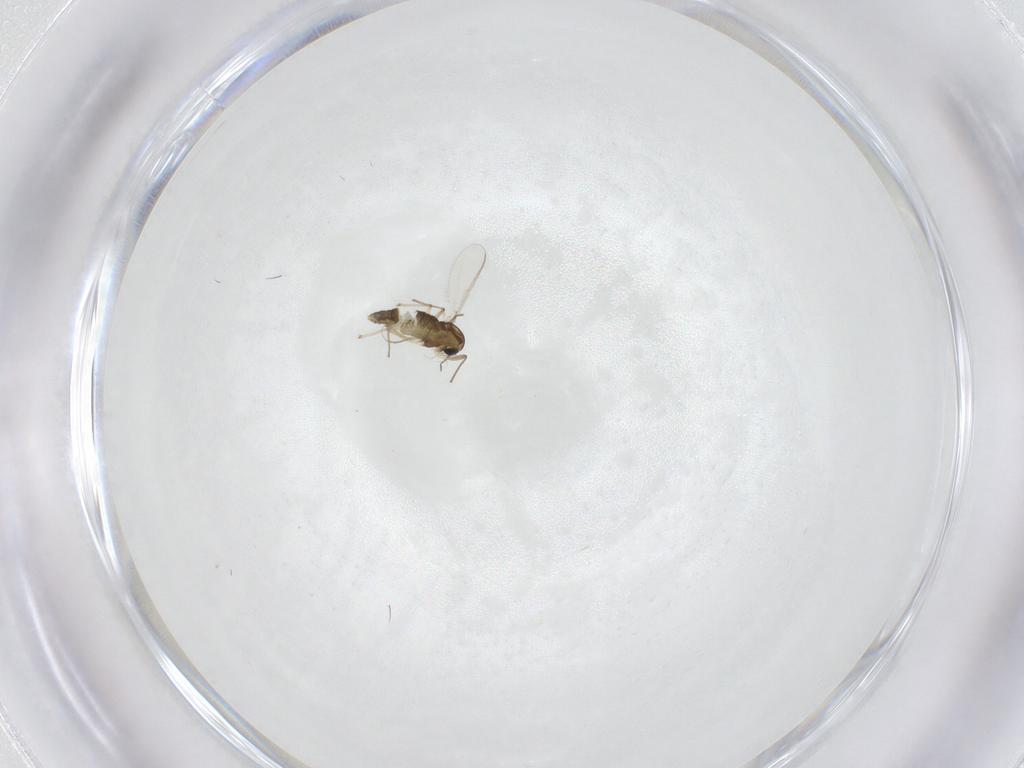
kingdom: Animalia
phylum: Arthropoda
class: Insecta
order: Diptera
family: Chironomidae
